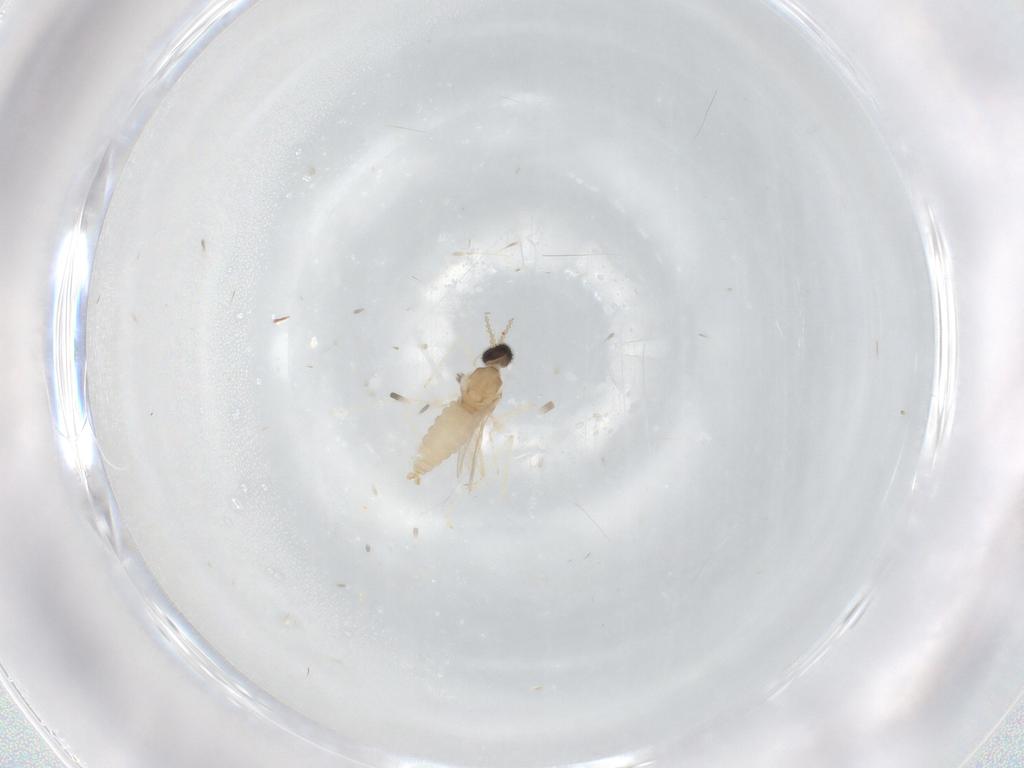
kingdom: Animalia
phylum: Arthropoda
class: Insecta
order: Diptera
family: Cecidomyiidae
